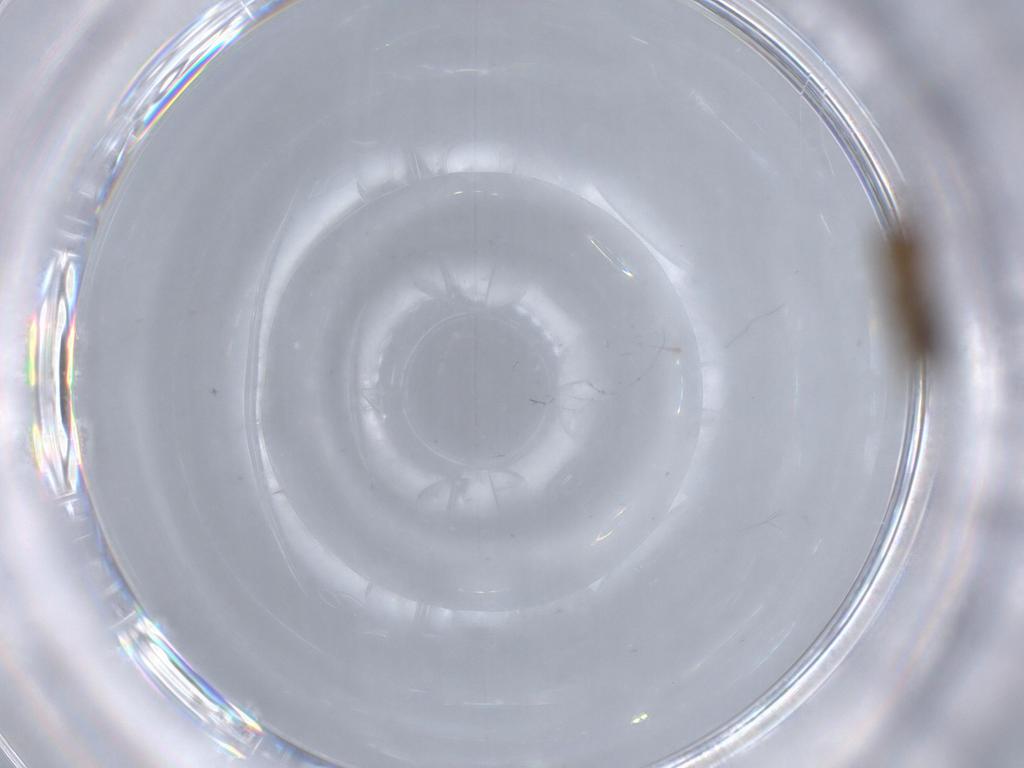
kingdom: Animalia
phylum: Arthropoda
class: Insecta
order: Diptera
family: Sciaridae
